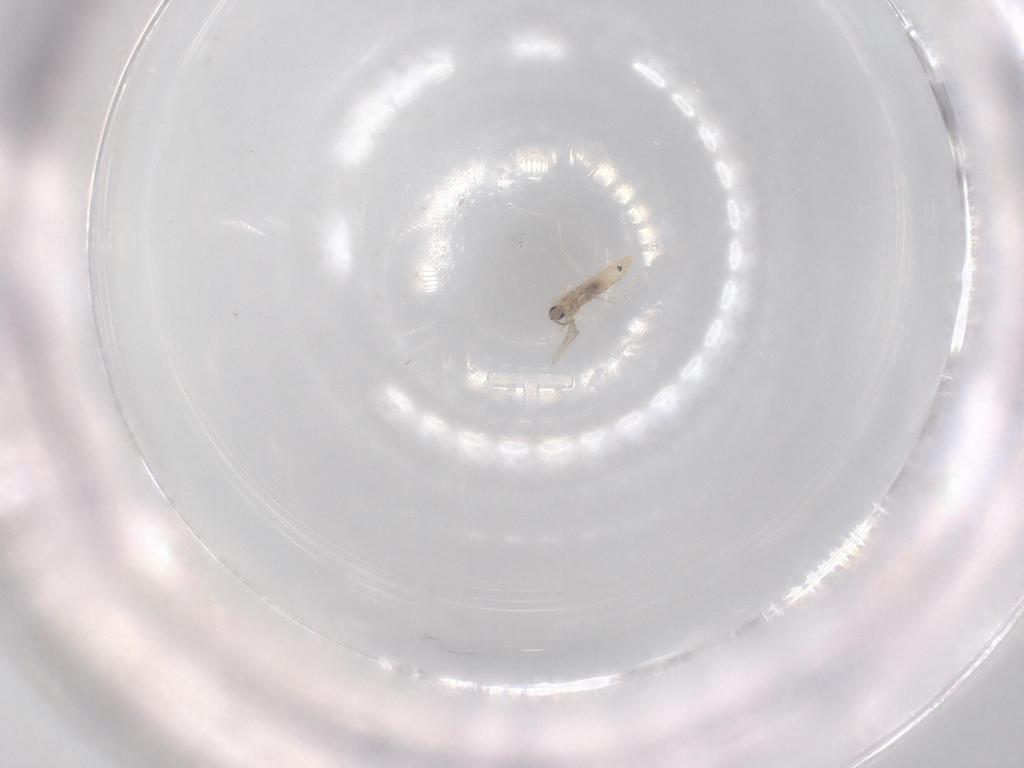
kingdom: Animalia
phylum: Arthropoda
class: Insecta
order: Diptera
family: Cecidomyiidae
